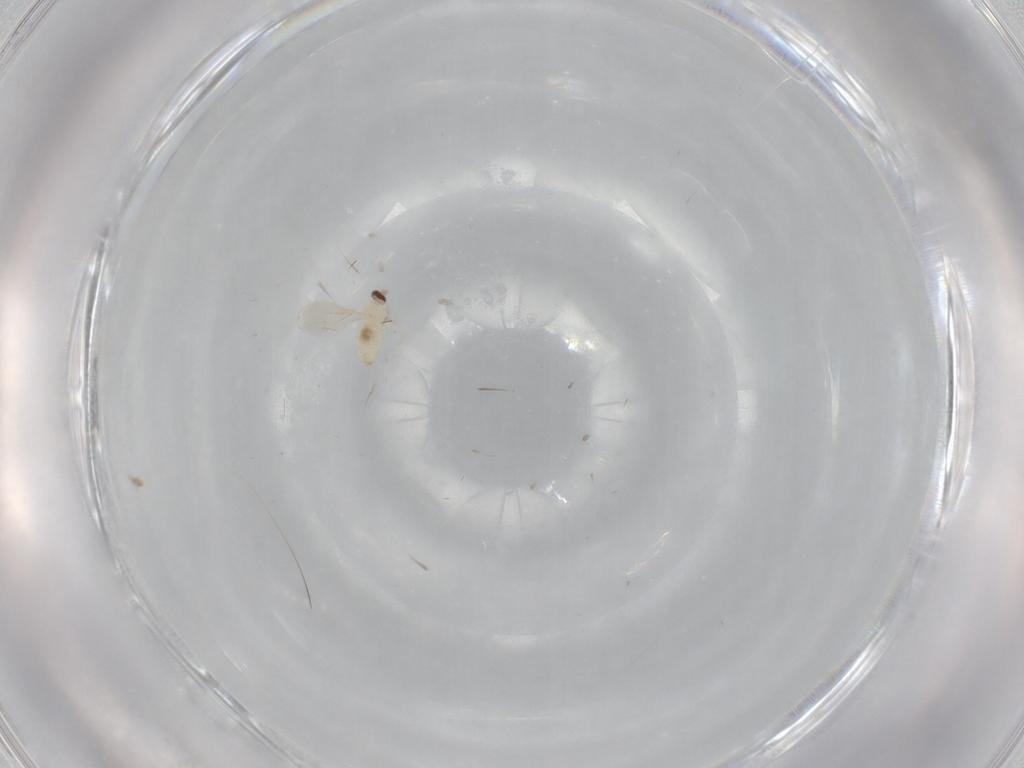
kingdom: Animalia
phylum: Arthropoda
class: Insecta
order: Diptera
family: Cecidomyiidae
